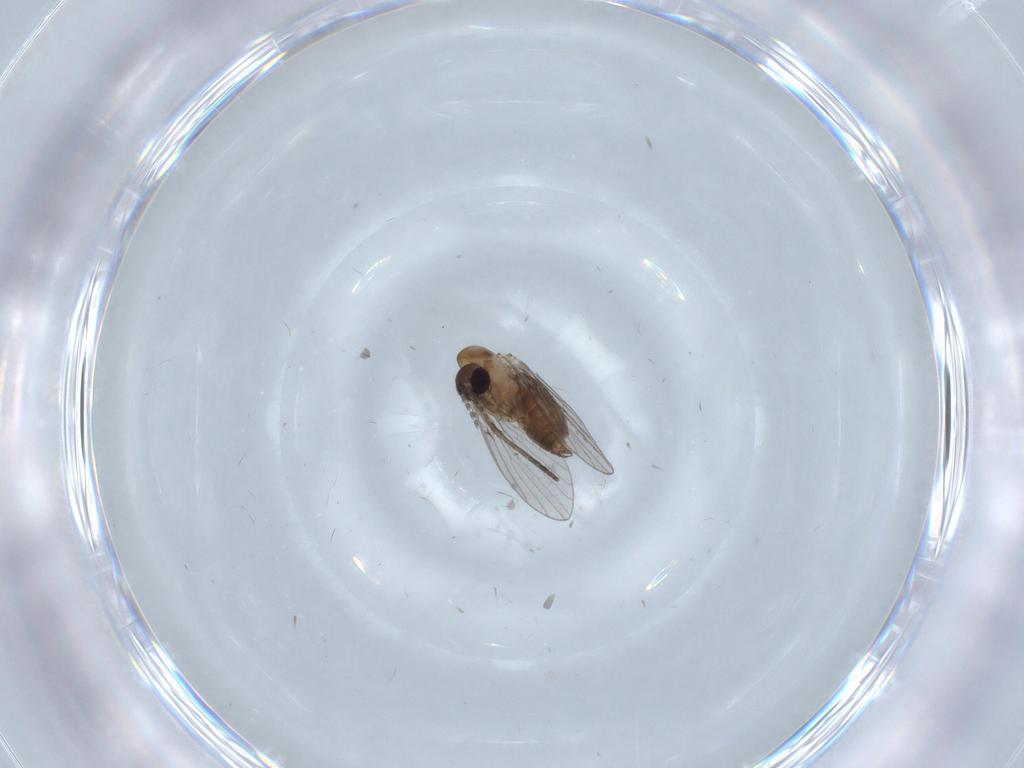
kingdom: Animalia
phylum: Arthropoda
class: Insecta
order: Diptera
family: Psychodidae
